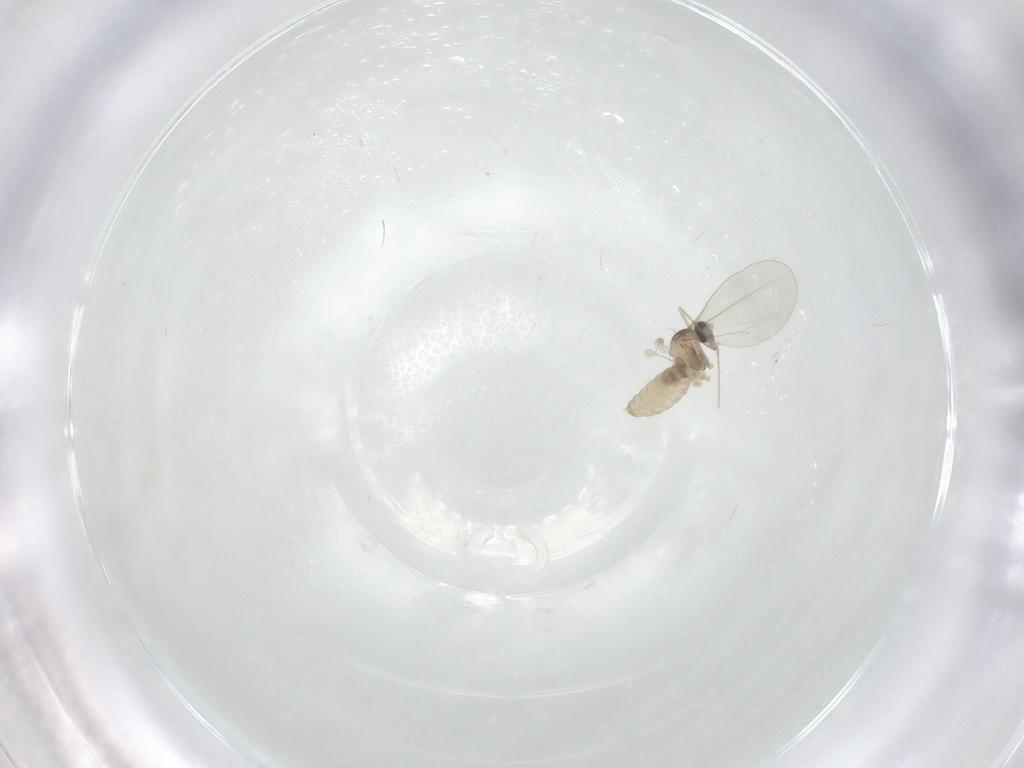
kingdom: Animalia
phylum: Arthropoda
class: Insecta
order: Diptera
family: Cecidomyiidae
